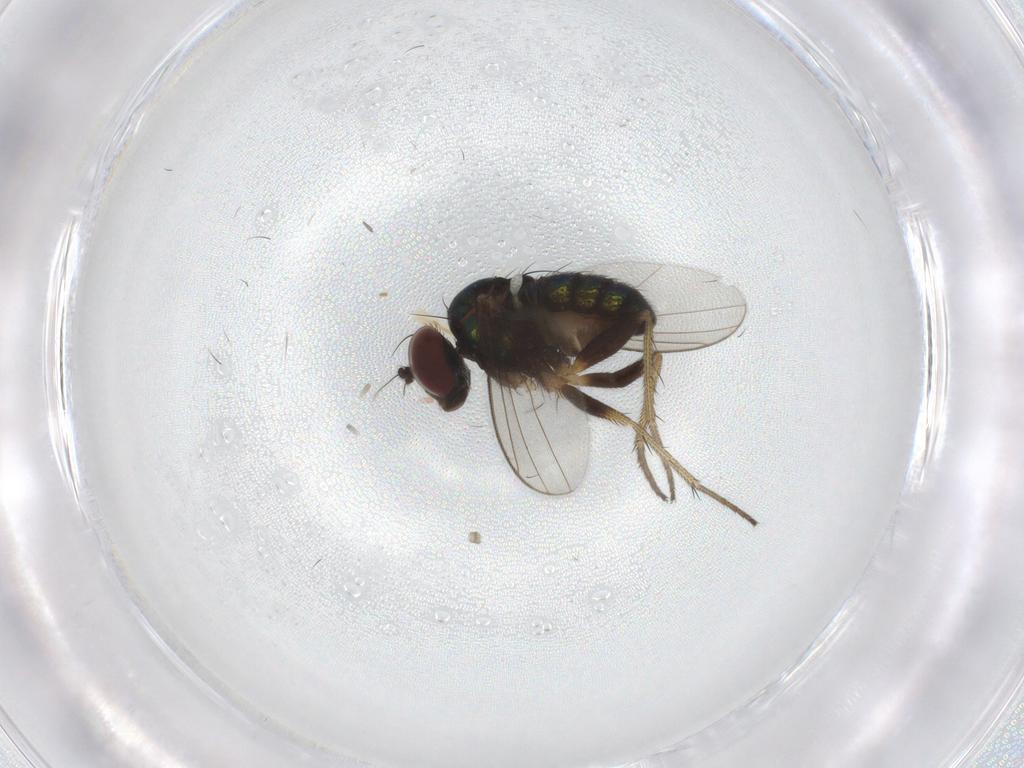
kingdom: Animalia
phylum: Arthropoda
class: Insecta
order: Diptera
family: Dolichopodidae
